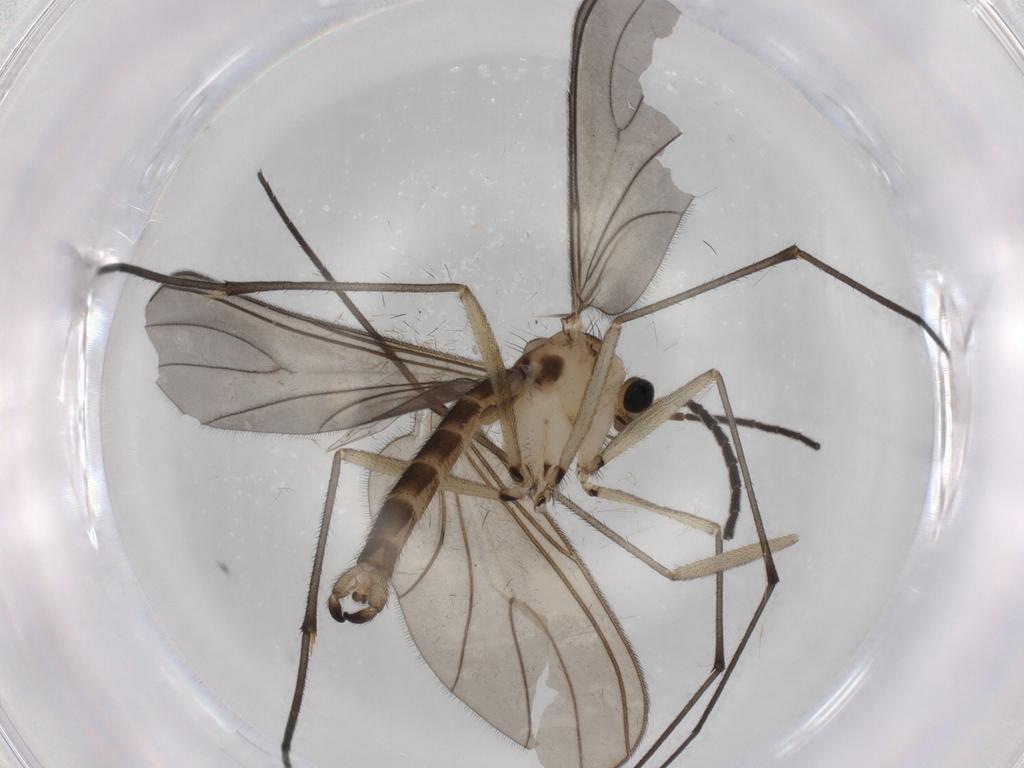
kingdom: Animalia
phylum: Arthropoda
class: Insecta
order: Diptera
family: Sciaridae
